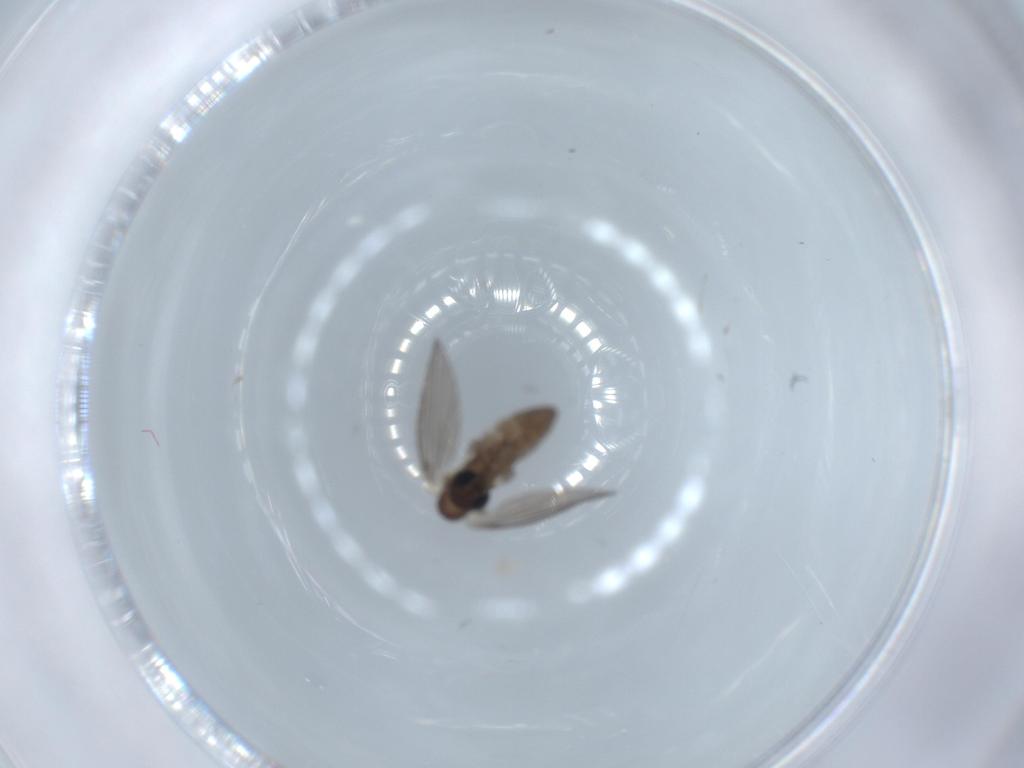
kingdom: Animalia
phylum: Arthropoda
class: Insecta
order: Diptera
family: Psychodidae
